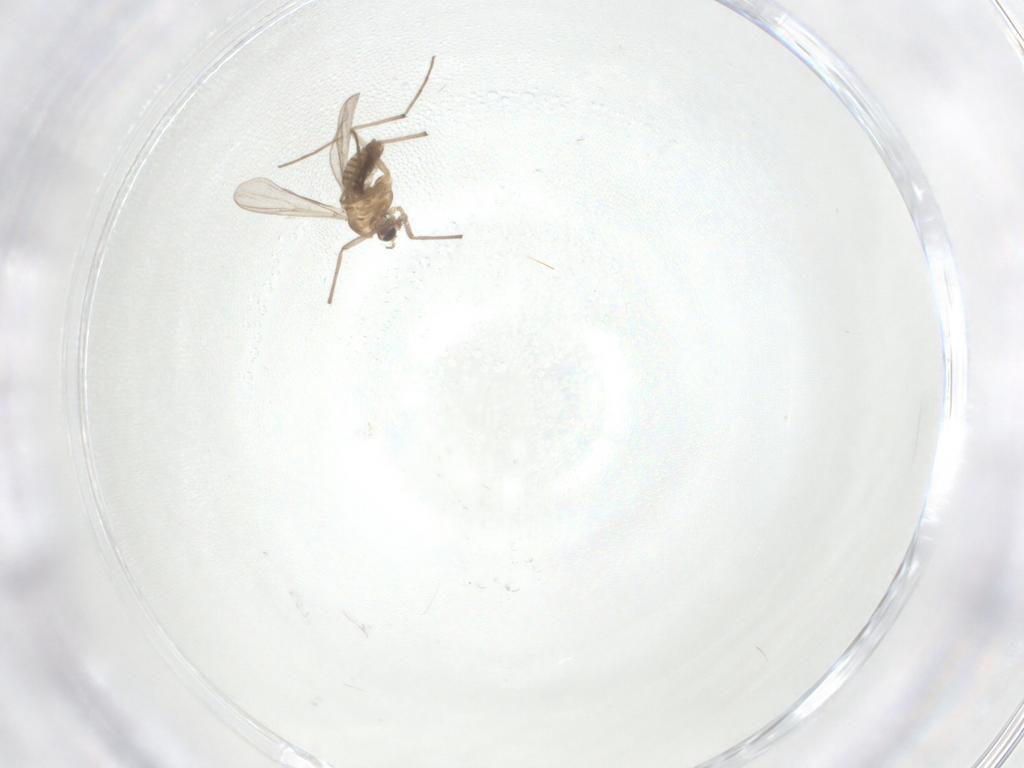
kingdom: Animalia
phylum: Arthropoda
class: Insecta
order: Diptera
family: Chironomidae
